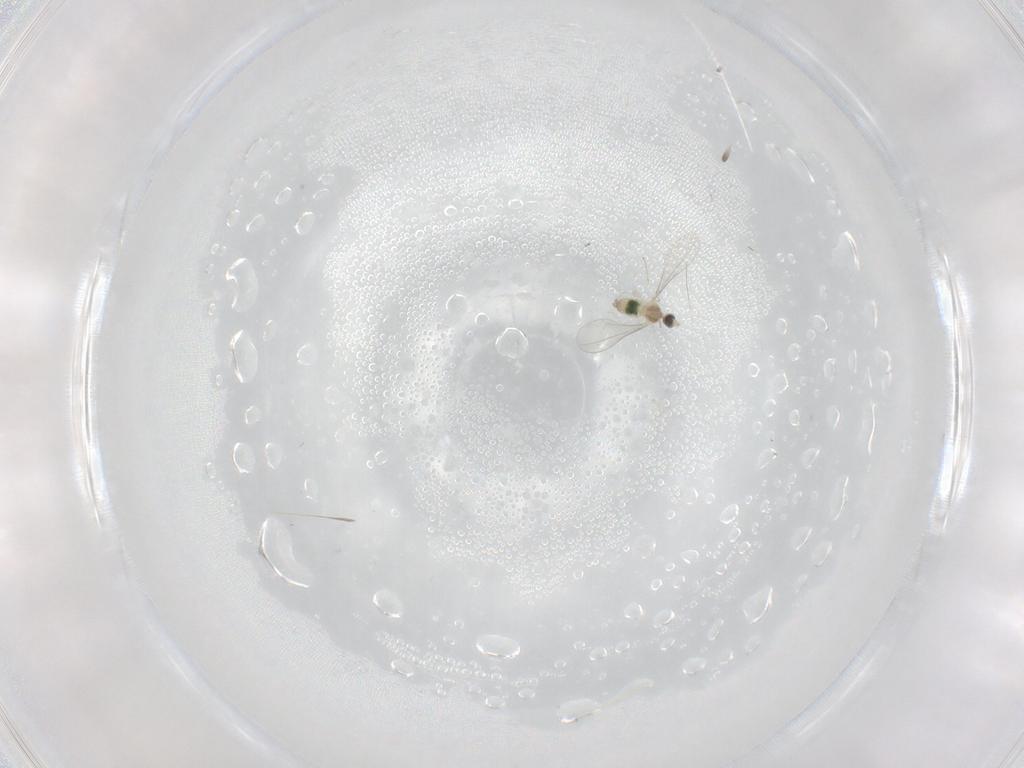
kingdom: Animalia
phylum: Arthropoda
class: Insecta
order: Diptera
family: Cecidomyiidae
